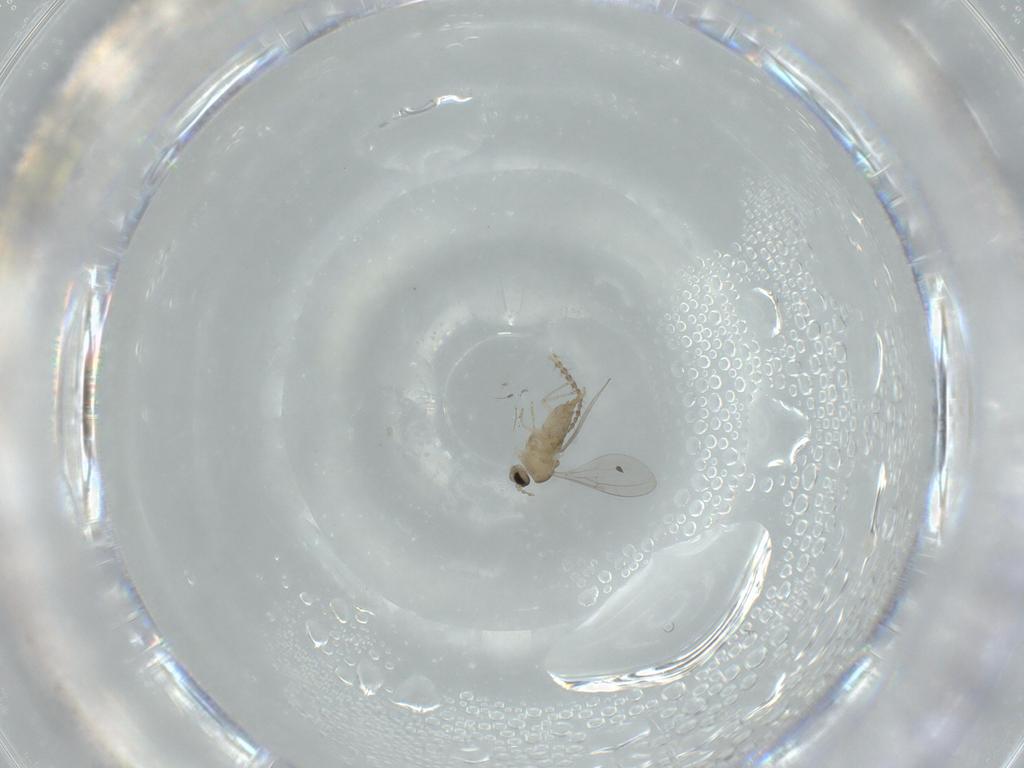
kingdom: Animalia
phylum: Arthropoda
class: Insecta
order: Diptera
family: Cecidomyiidae
